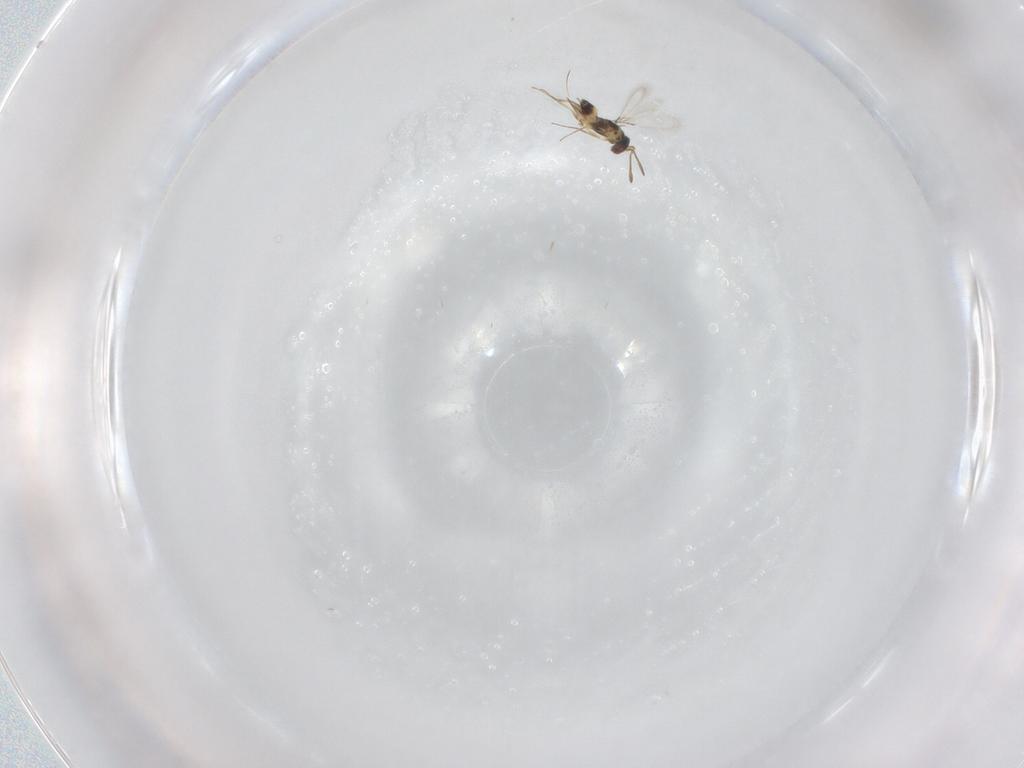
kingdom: Animalia
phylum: Arthropoda
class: Insecta
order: Hymenoptera
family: Mymaridae
